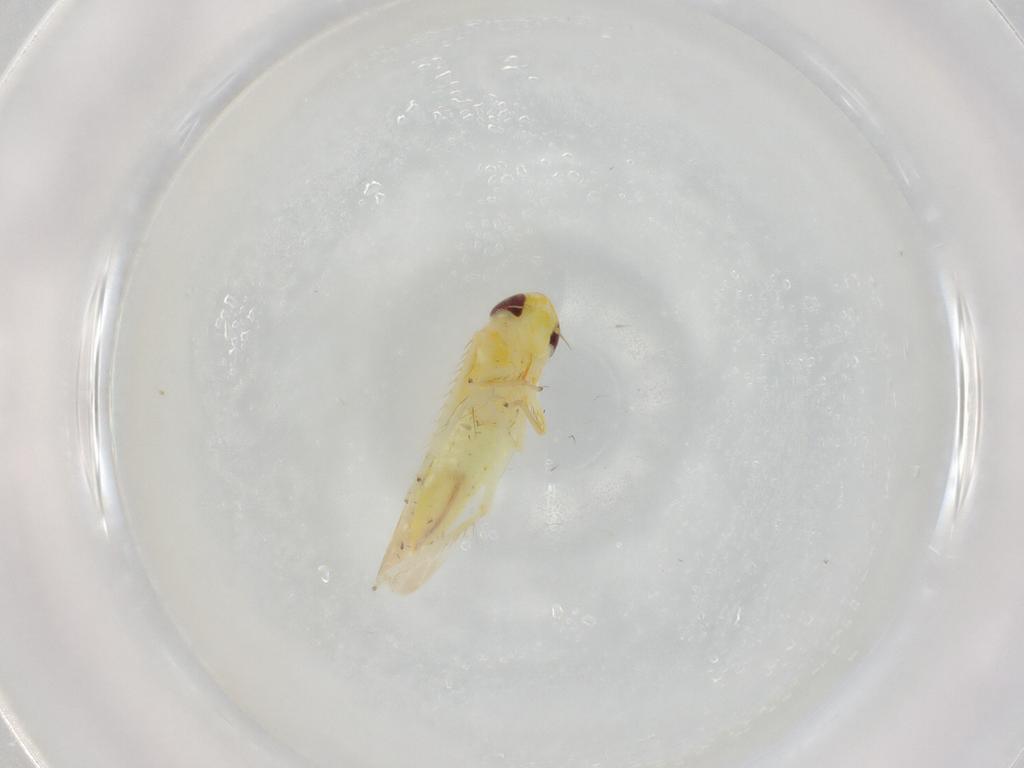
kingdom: Animalia
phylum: Arthropoda
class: Insecta
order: Hemiptera
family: Cicadellidae
